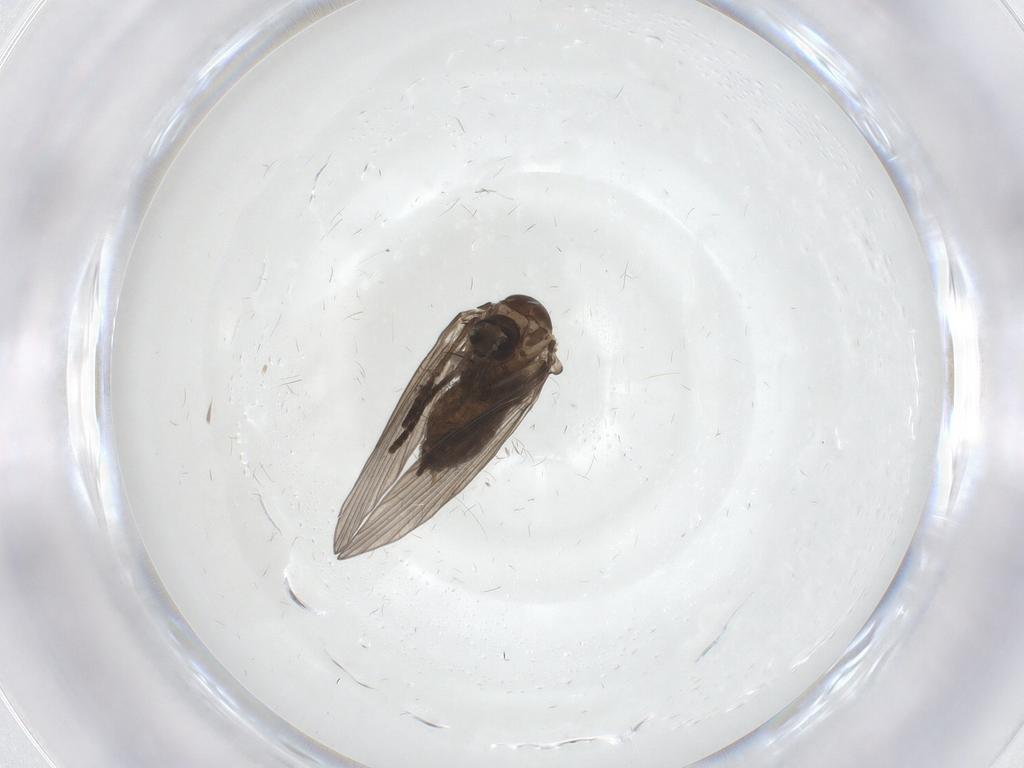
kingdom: Animalia
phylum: Arthropoda
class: Insecta
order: Diptera
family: Psychodidae
